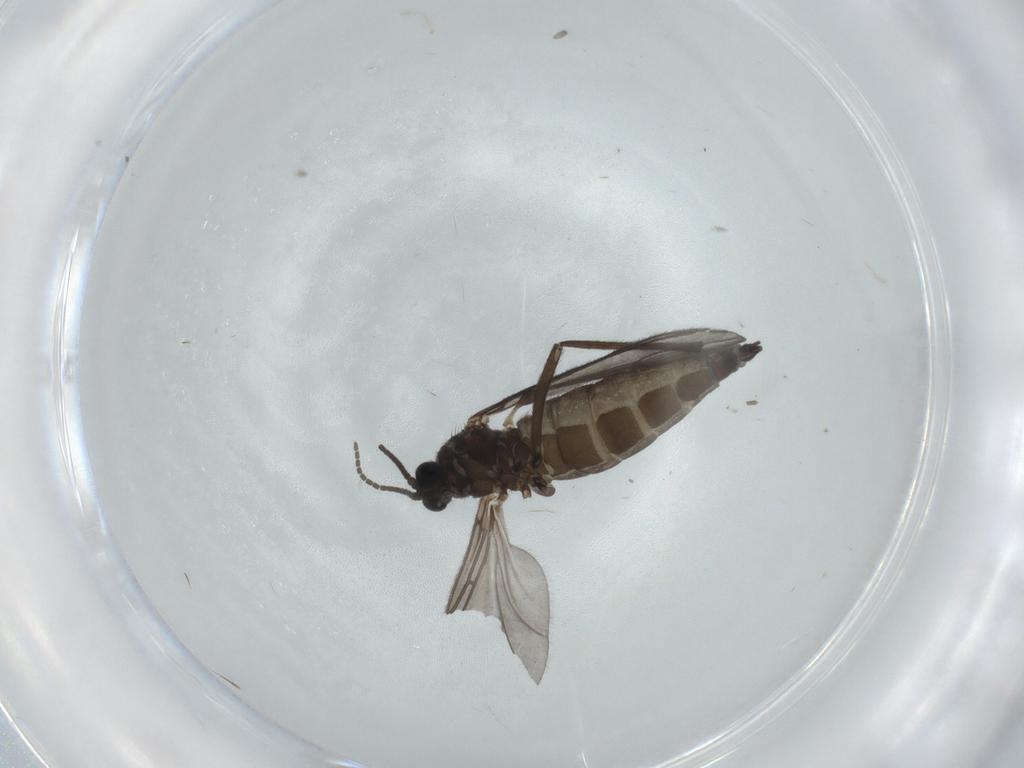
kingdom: Animalia
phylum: Arthropoda
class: Insecta
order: Diptera
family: Sciaridae
